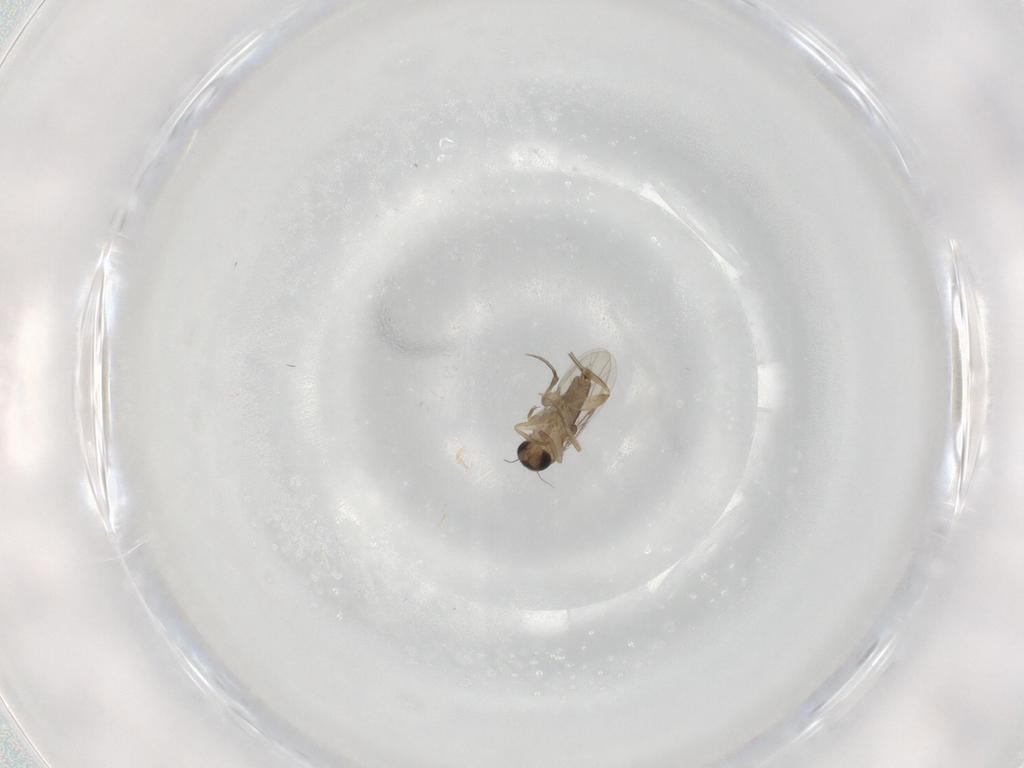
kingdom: Animalia
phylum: Arthropoda
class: Insecta
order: Diptera
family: Phoridae
